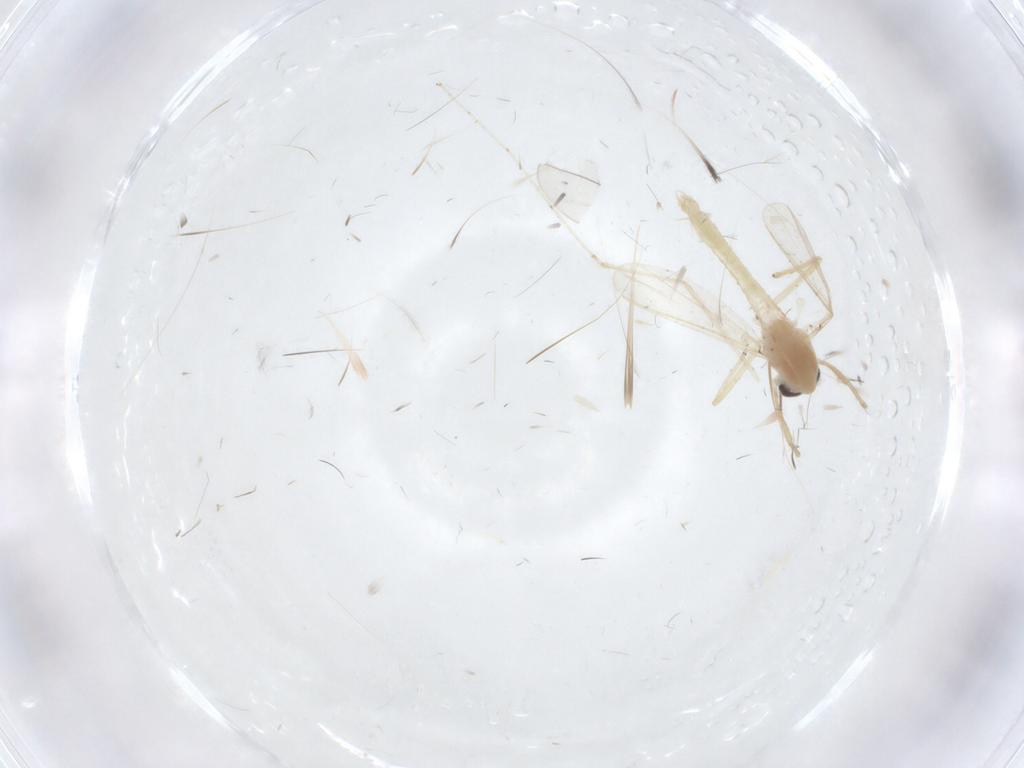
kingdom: Animalia
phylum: Arthropoda
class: Insecta
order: Diptera
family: Chironomidae
